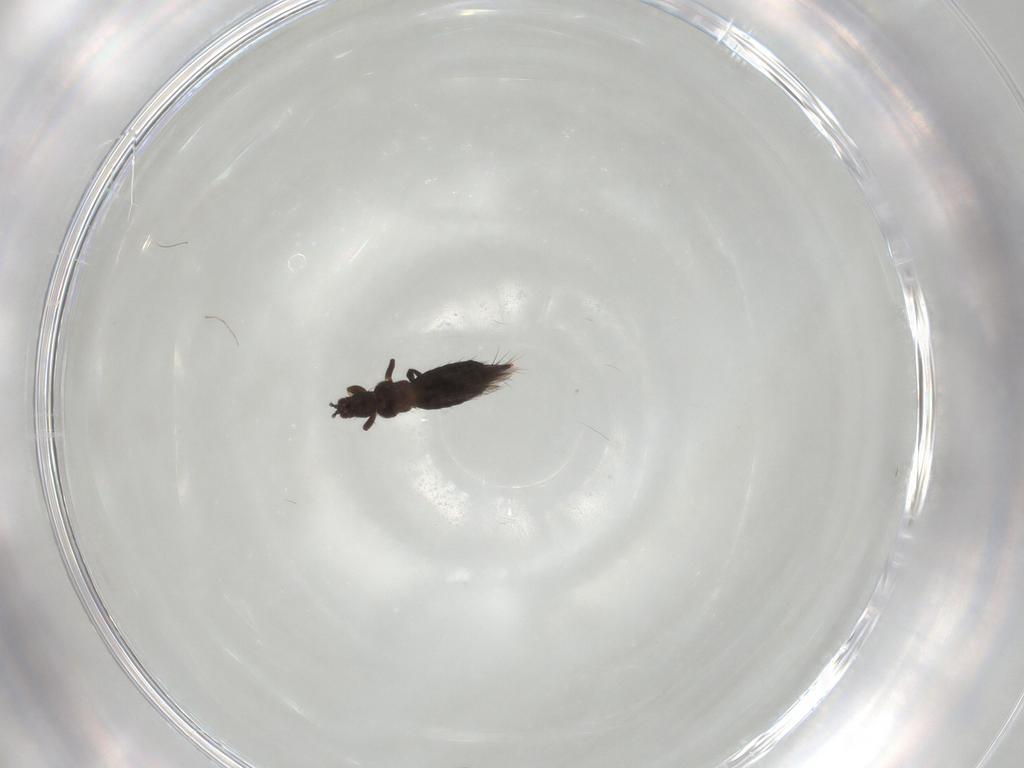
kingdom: Animalia
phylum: Arthropoda
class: Insecta
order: Thysanoptera
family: Thripidae
